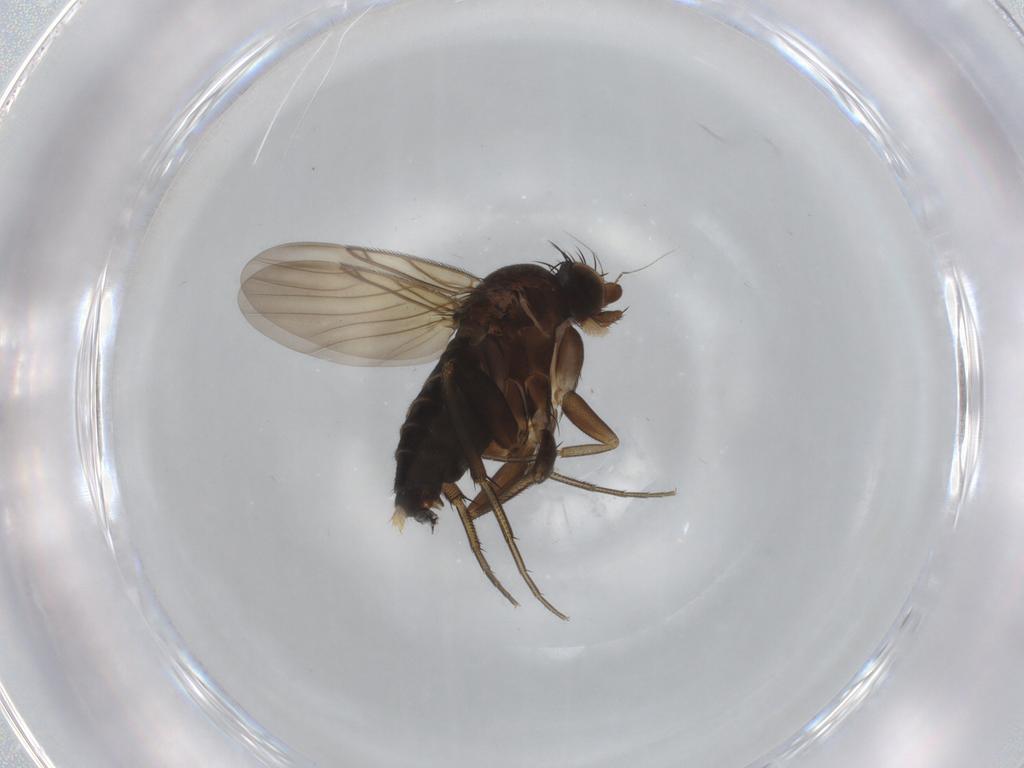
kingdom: Animalia
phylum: Arthropoda
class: Insecta
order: Diptera
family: Phoridae
